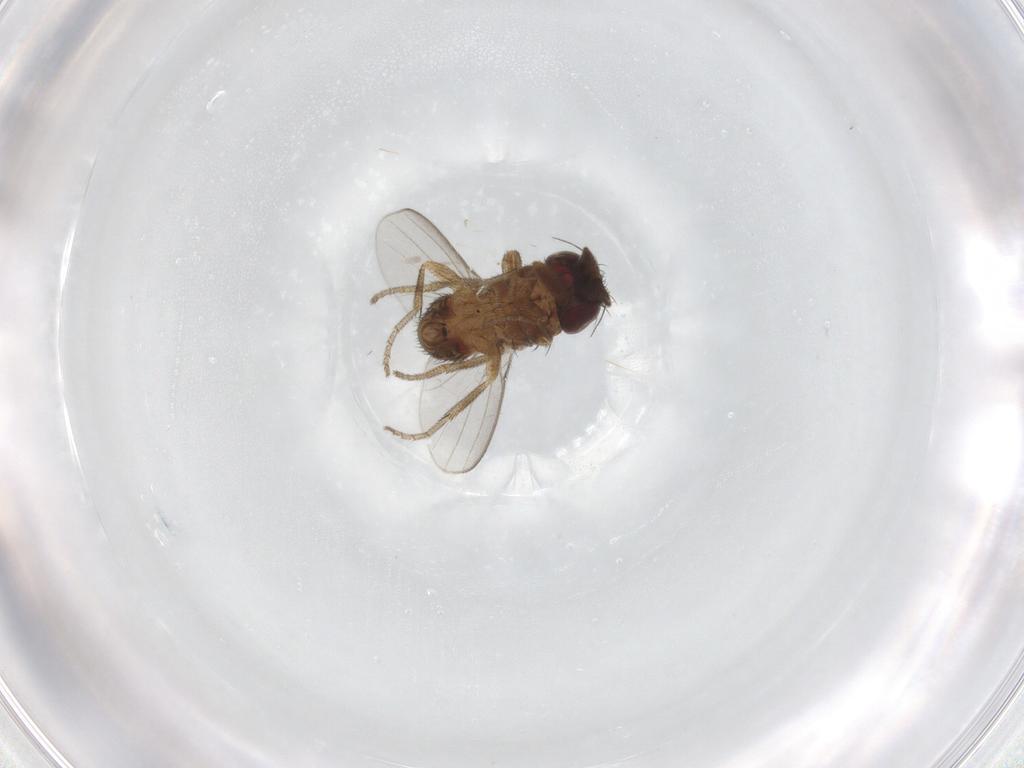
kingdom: Animalia
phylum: Arthropoda
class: Insecta
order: Diptera
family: Milichiidae
